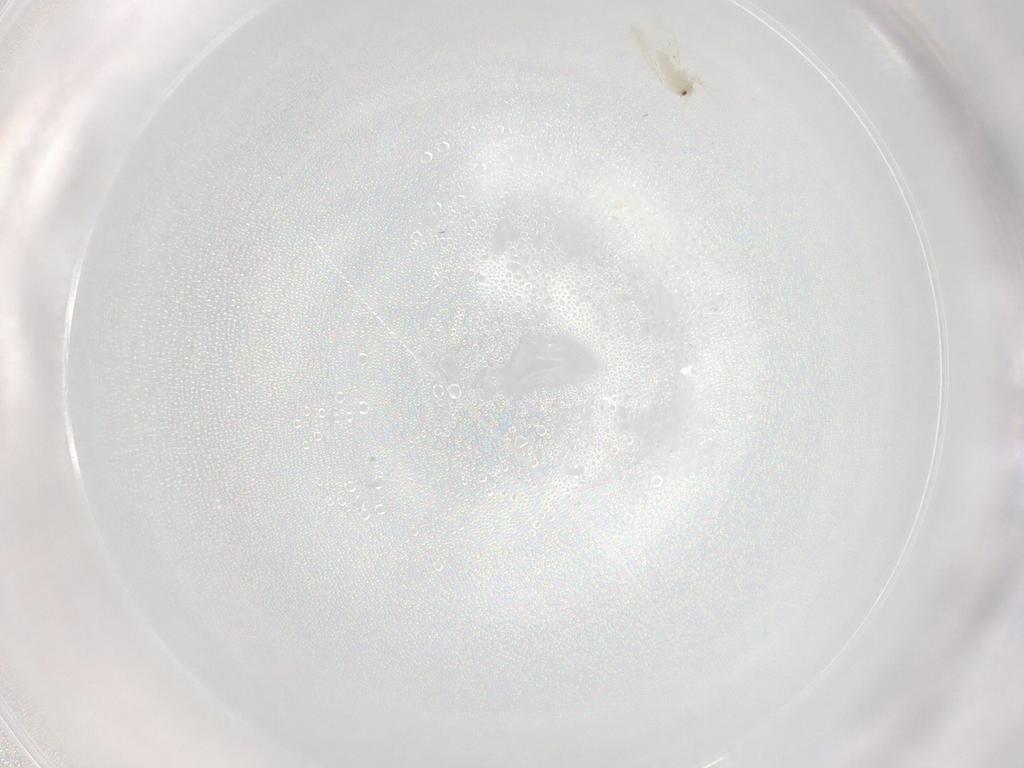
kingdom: Animalia
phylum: Arthropoda
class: Insecta
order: Hemiptera
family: Aleyrodidae
